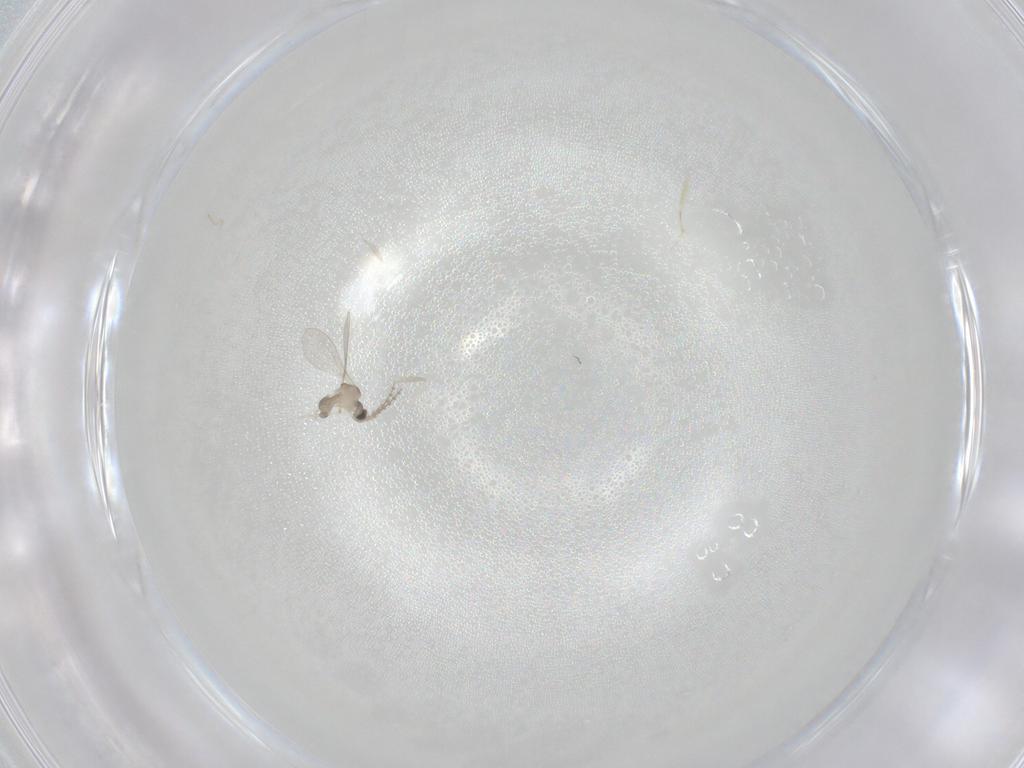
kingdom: Animalia
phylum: Arthropoda
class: Insecta
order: Diptera
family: Cecidomyiidae
